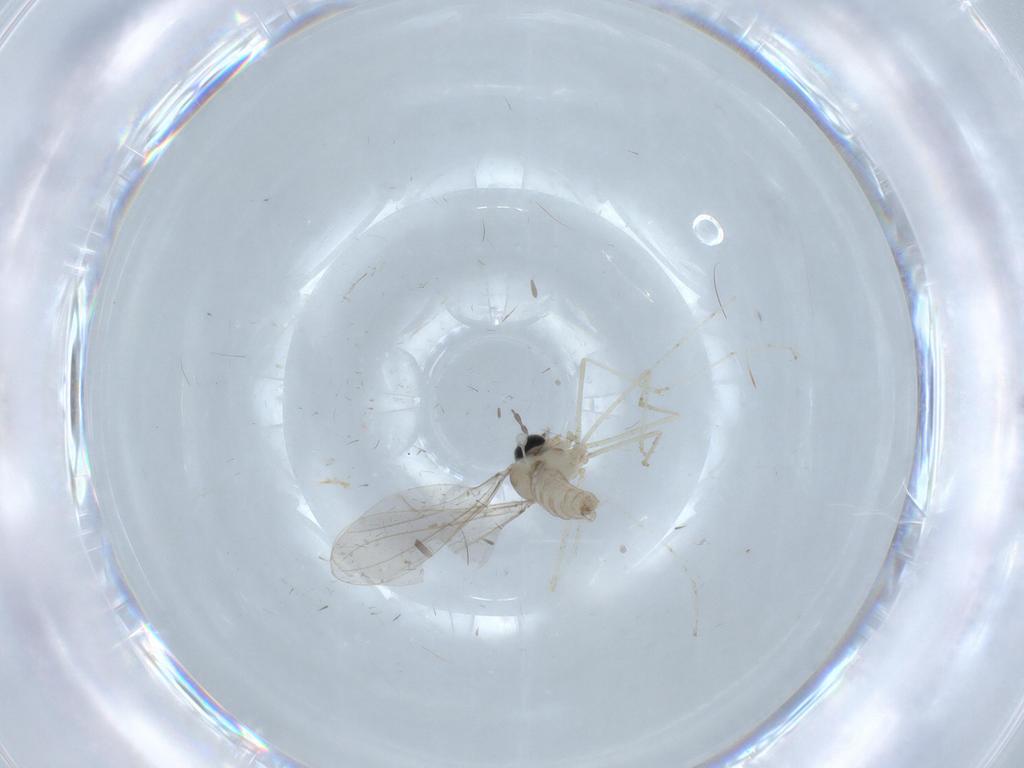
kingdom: Animalia
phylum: Arthropoda
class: Insecta
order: Diptera
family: Cecidomyiidae
